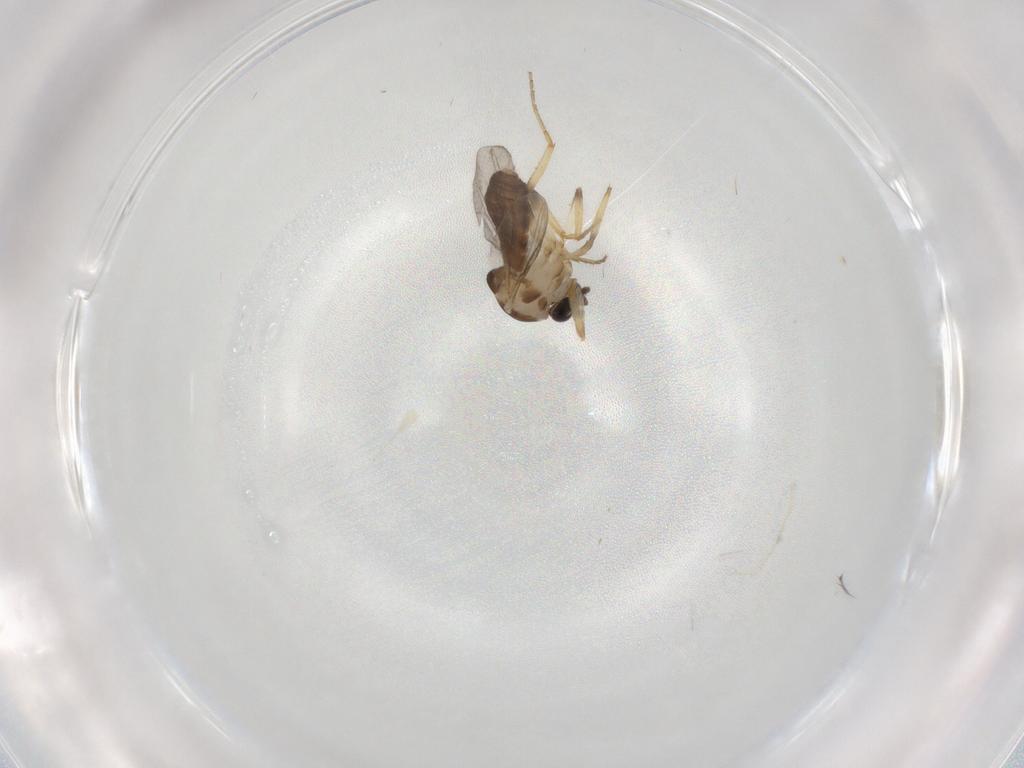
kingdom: Animalia
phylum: Arthropoda
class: Insecta
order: Diptera
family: Ceratopogonidae
